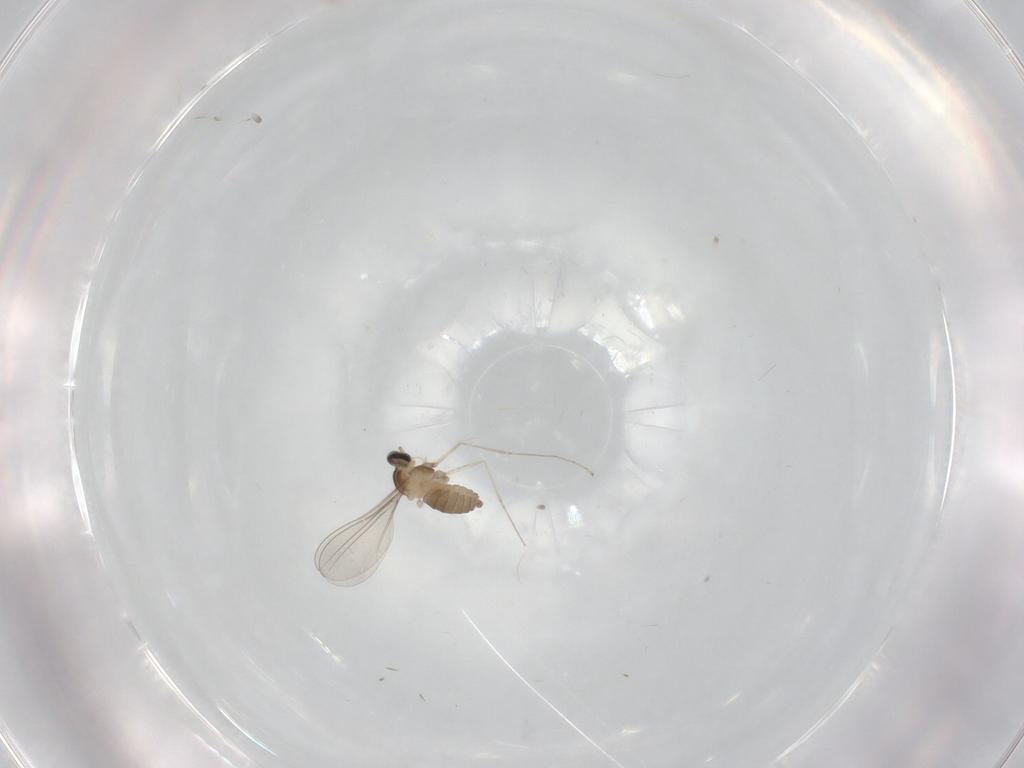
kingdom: Animalia
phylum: Arthropoda
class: Insecta
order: Diptera
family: Cecidomyiidae
